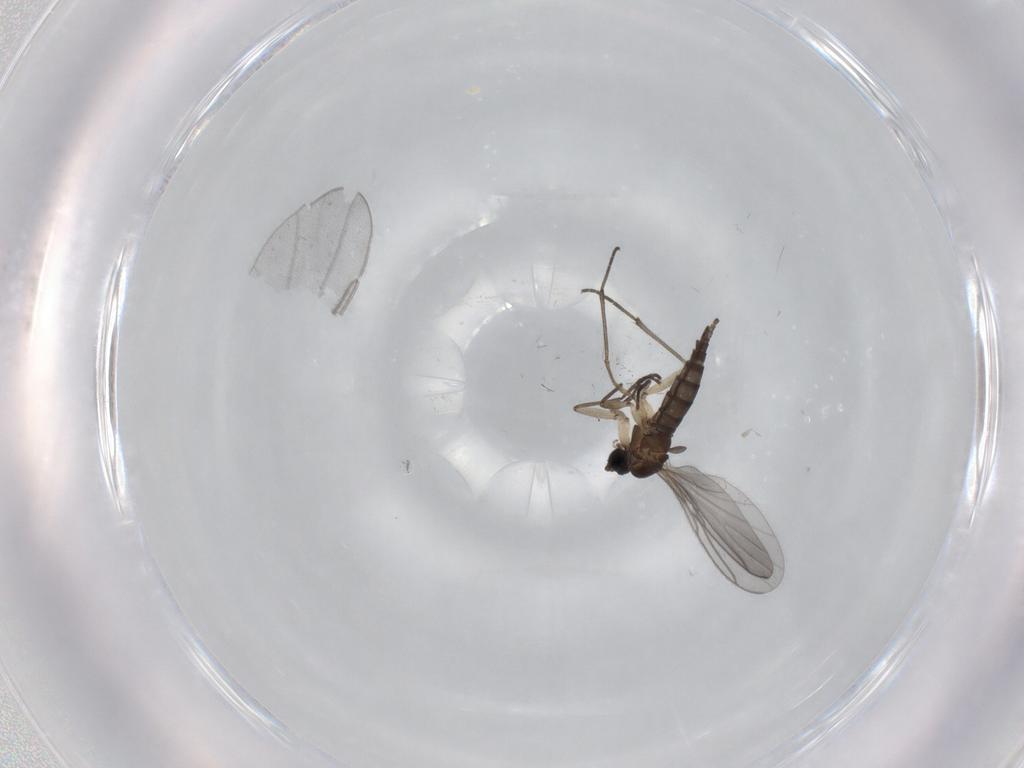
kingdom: Animalia
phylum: Arthropoda
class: Insecta
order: Diptera
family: Sciaridae
